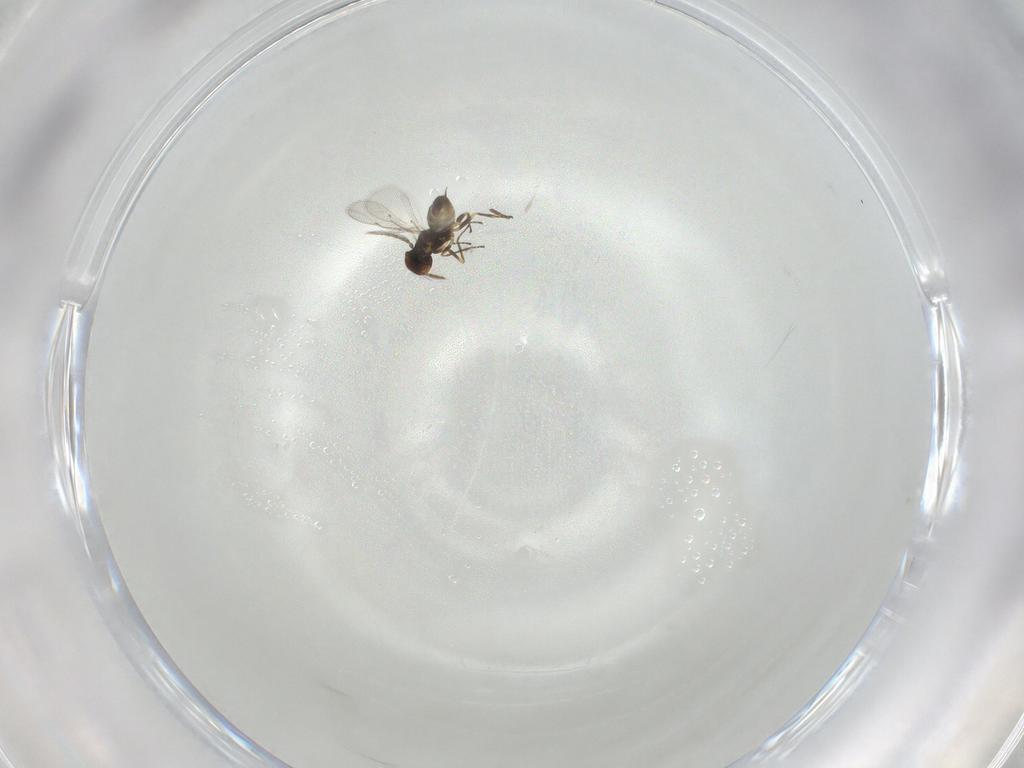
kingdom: Animalia
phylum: Arthropoda
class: Insecta
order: Hymenoptera
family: Eulophidae
